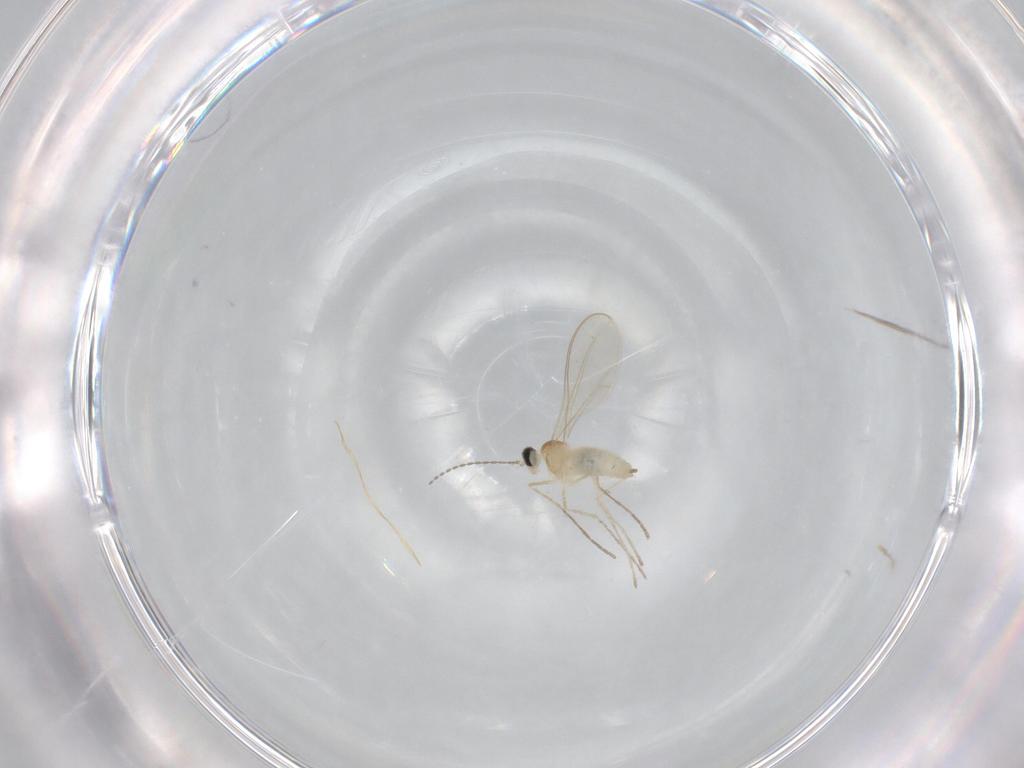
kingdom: Animalia
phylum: Arthropoda
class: Insecta
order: Diptera
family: Cecidomyiidae
